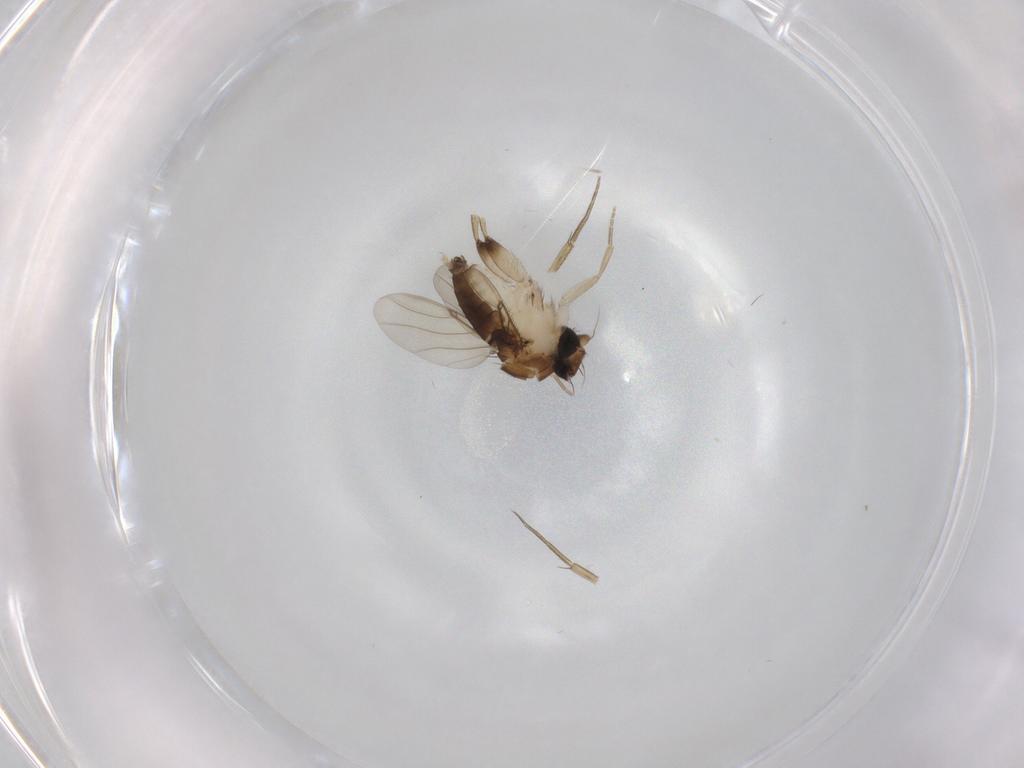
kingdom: Animalia
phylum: Arthropoda
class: Insecta
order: Diptera
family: Phoridae
